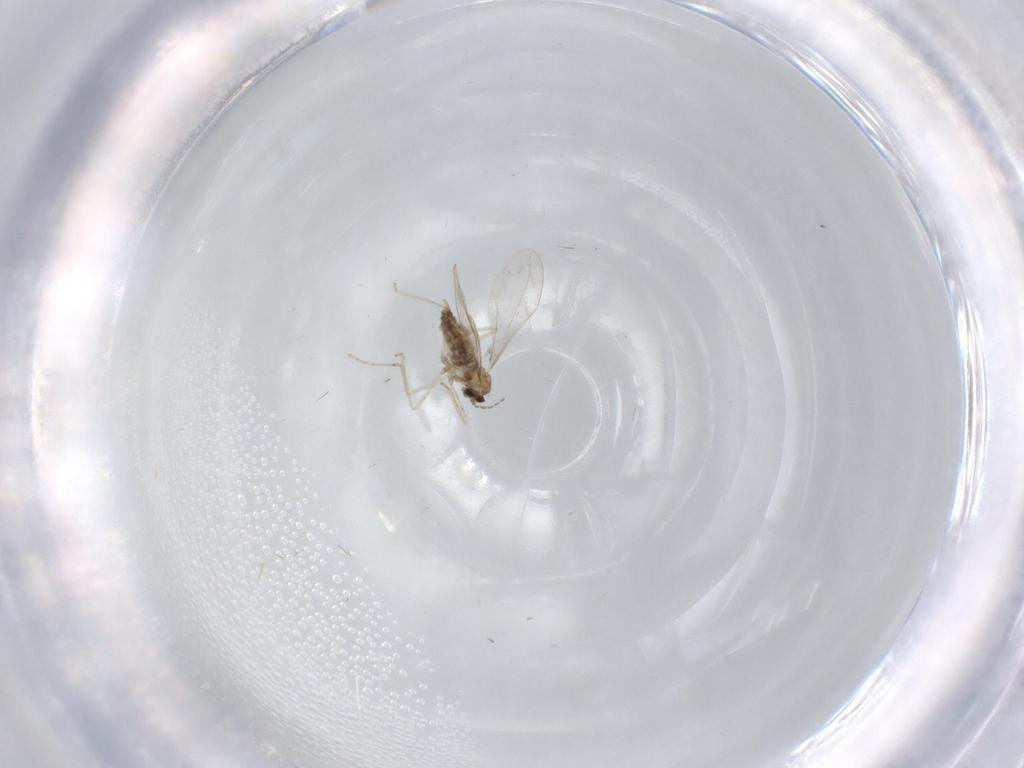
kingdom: Animalia
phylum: Arthropoda
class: Insecta
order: Diptera
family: Cecidomyiidae
